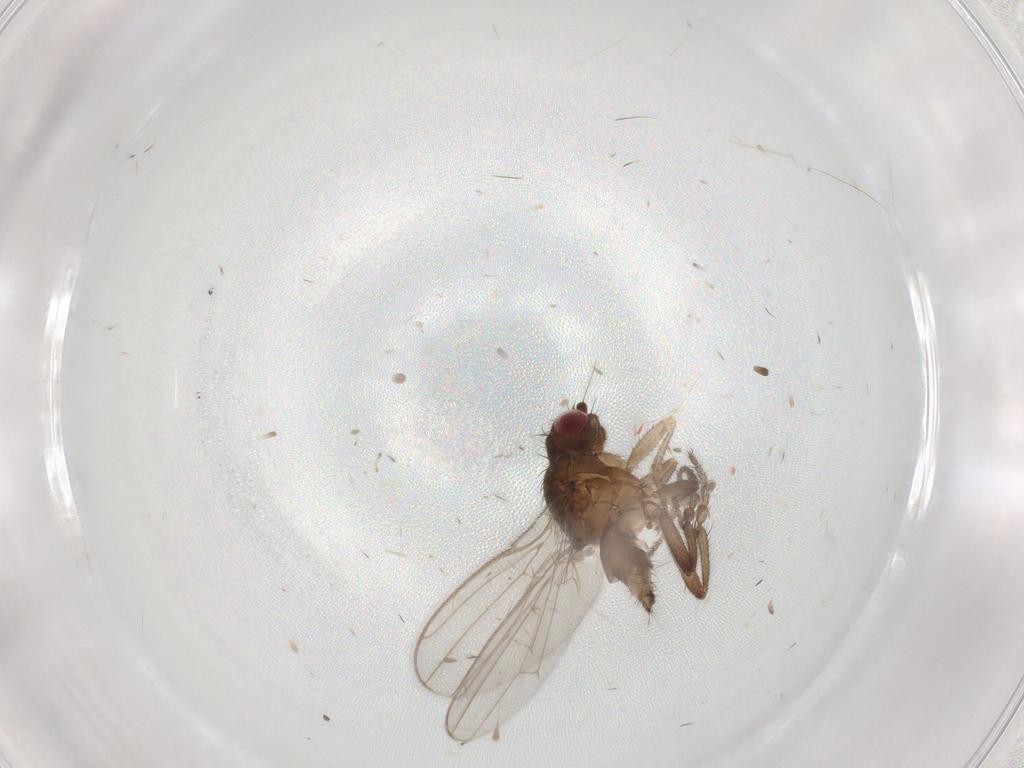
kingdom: Animalia
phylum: Arthropoda
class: Insecta
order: Diptera
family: Sphaeroceridae
